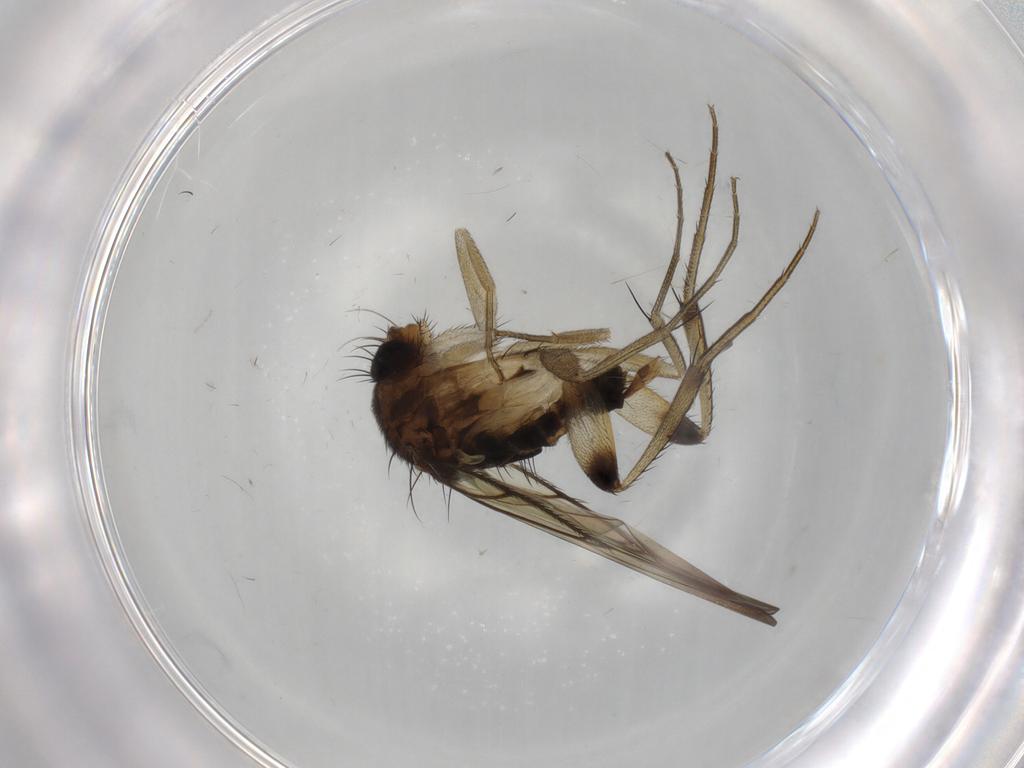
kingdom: Animalia
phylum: Arthropoda
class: Insecta
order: Diptera
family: Phoridae
